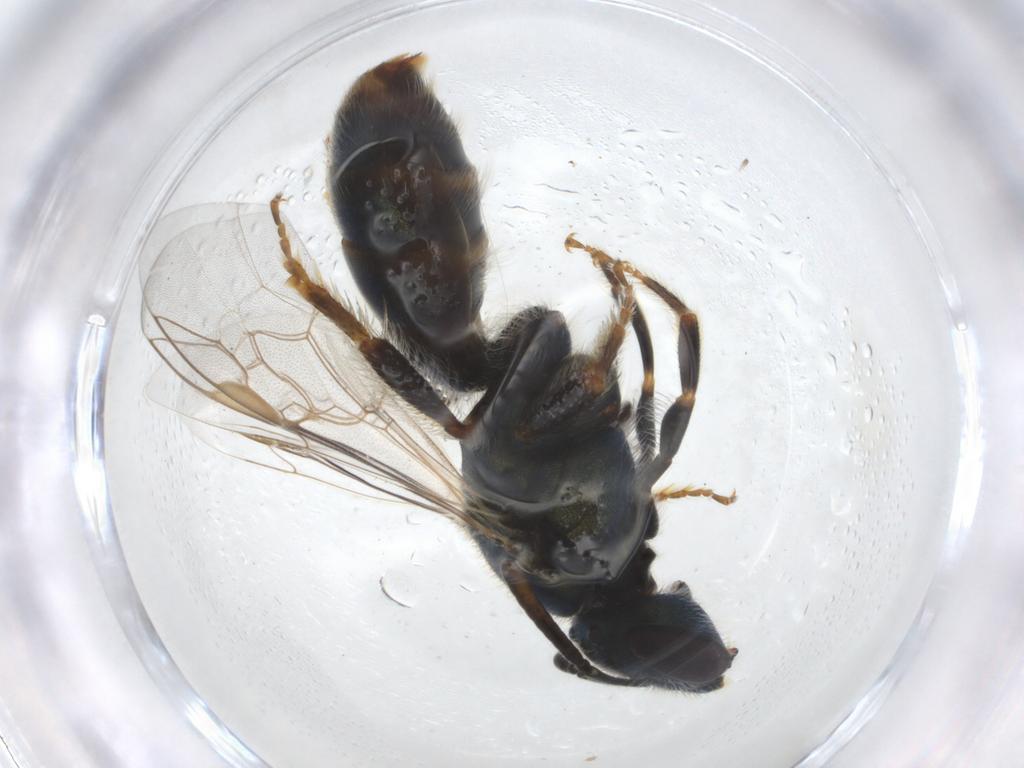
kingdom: Animalia
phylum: Arthropoda
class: Insecta
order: Hymenoptera
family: Halictidae
